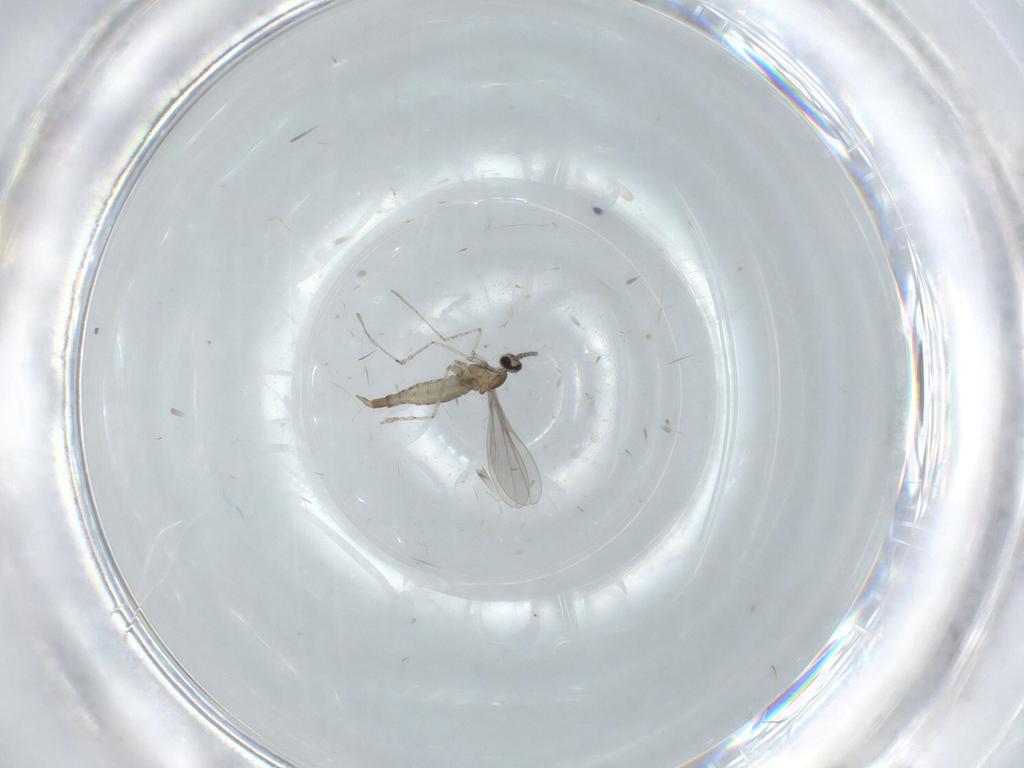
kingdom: Animalia
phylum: Arthropoda
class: Insecta
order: Diptera
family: Cecidomyiidae
